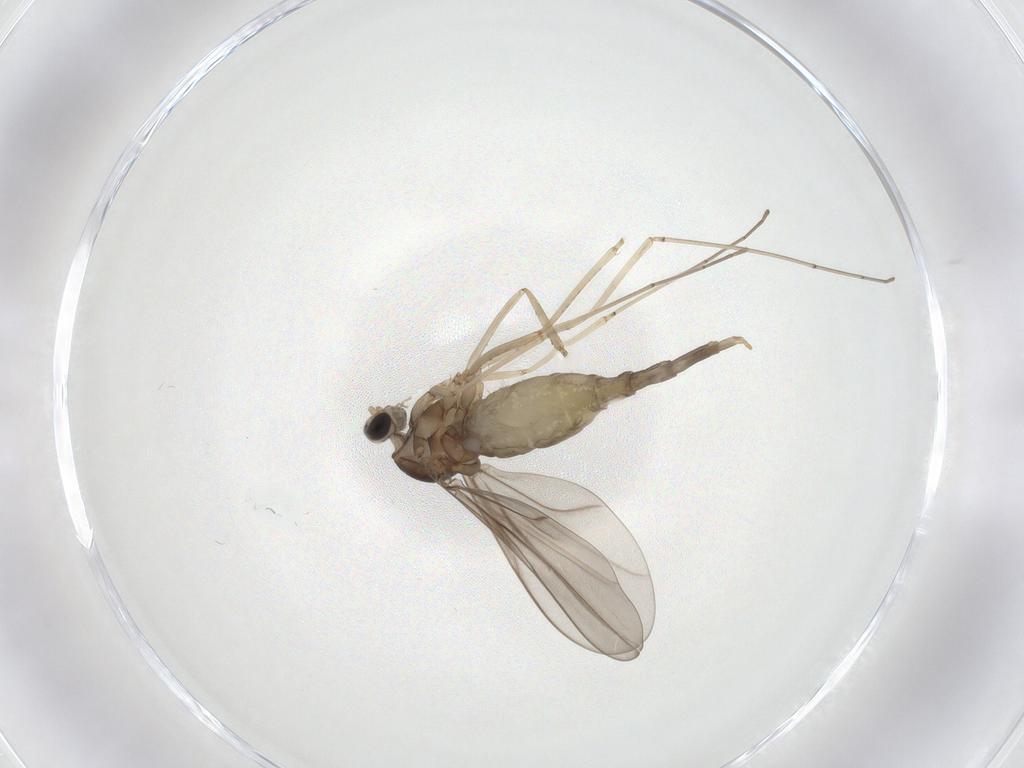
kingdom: Animalia
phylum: Arthropoda
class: Insecta
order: Diptera
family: Cecidomyiidae
